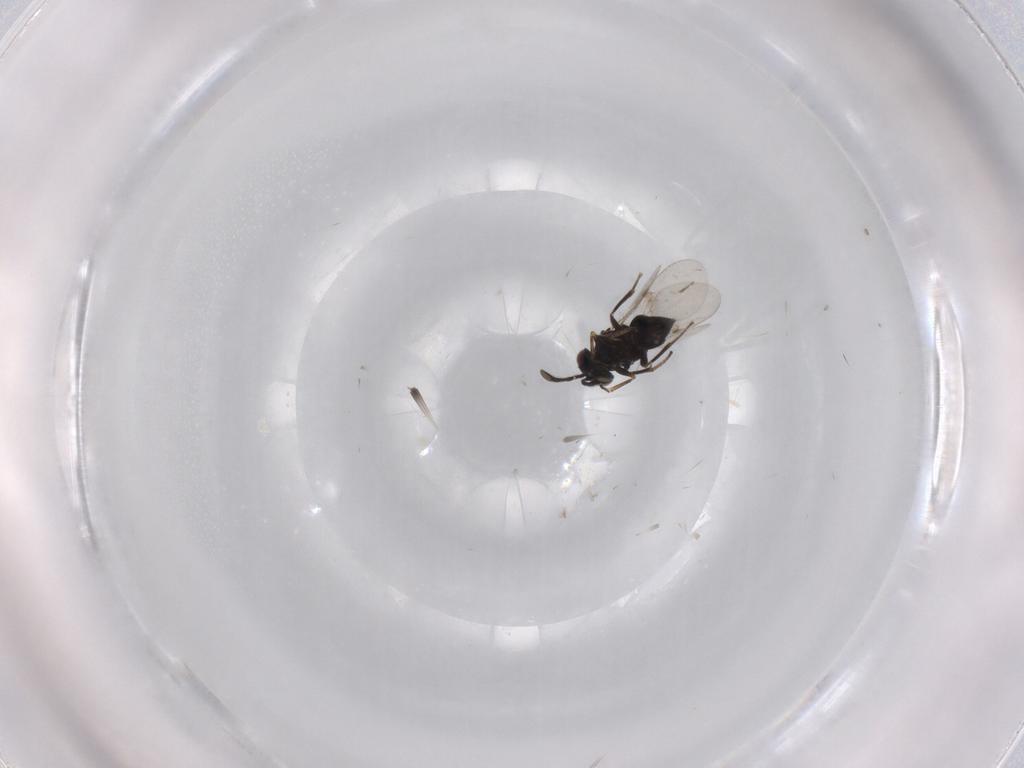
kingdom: Animalia
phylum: Arthropoda
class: Insecta
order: Hymenoptera
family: Platygastridae
